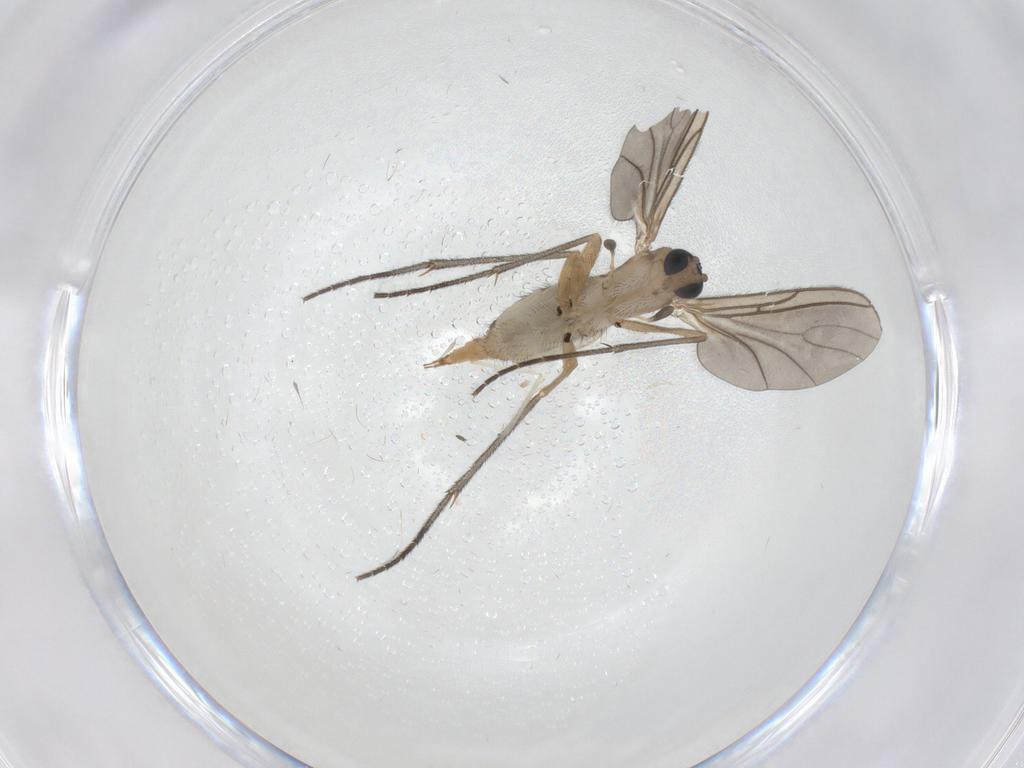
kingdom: Animalia
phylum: Arthropoda
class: Insecta
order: Diptera
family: Sciaridae
